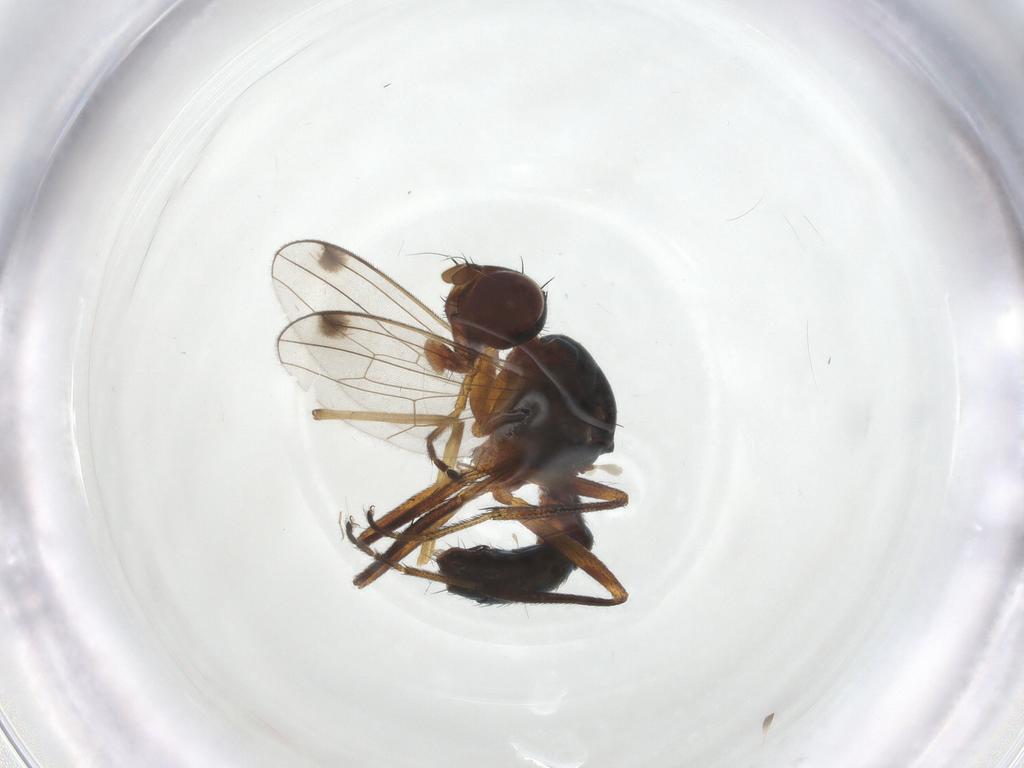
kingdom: Animalia
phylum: Arthropoda
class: Insecta
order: Diptera
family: Sepsidae
